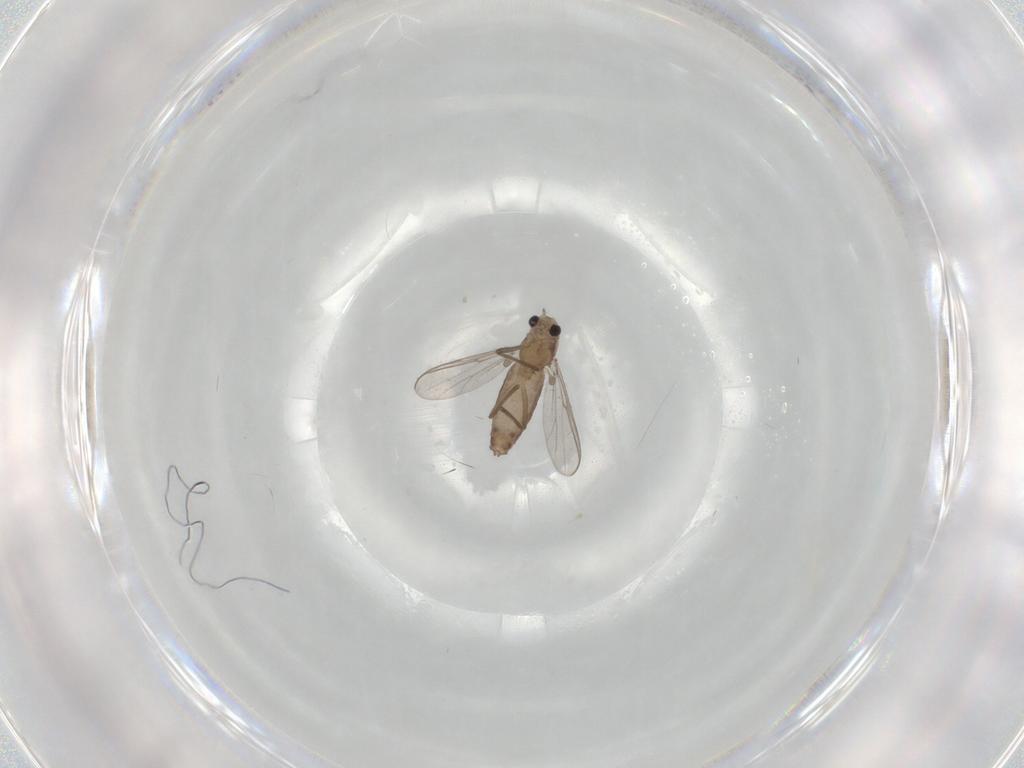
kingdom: Animalia
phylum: Arthropoda
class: Insecta
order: Diptera
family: Chironomidae
